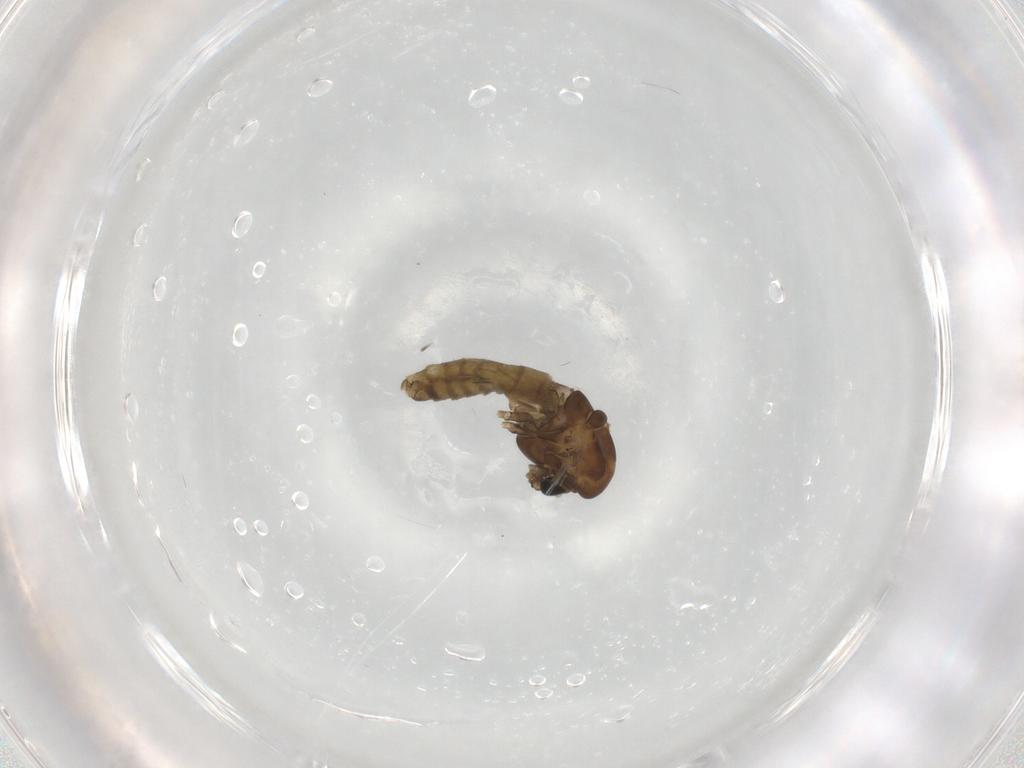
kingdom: Animalia
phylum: Arthropoda
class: Insecta
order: Diptera
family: Chironomidae
